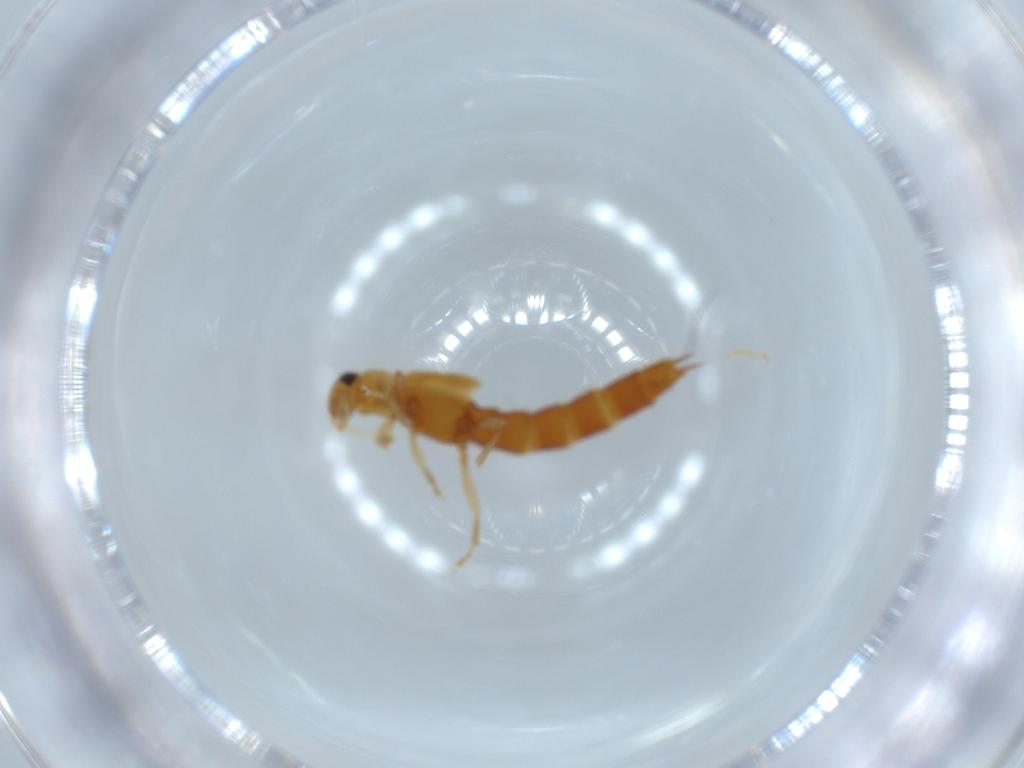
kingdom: Animalia
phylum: Arthropoda
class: Insecta
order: Coleoptera
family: Staphylinidae
